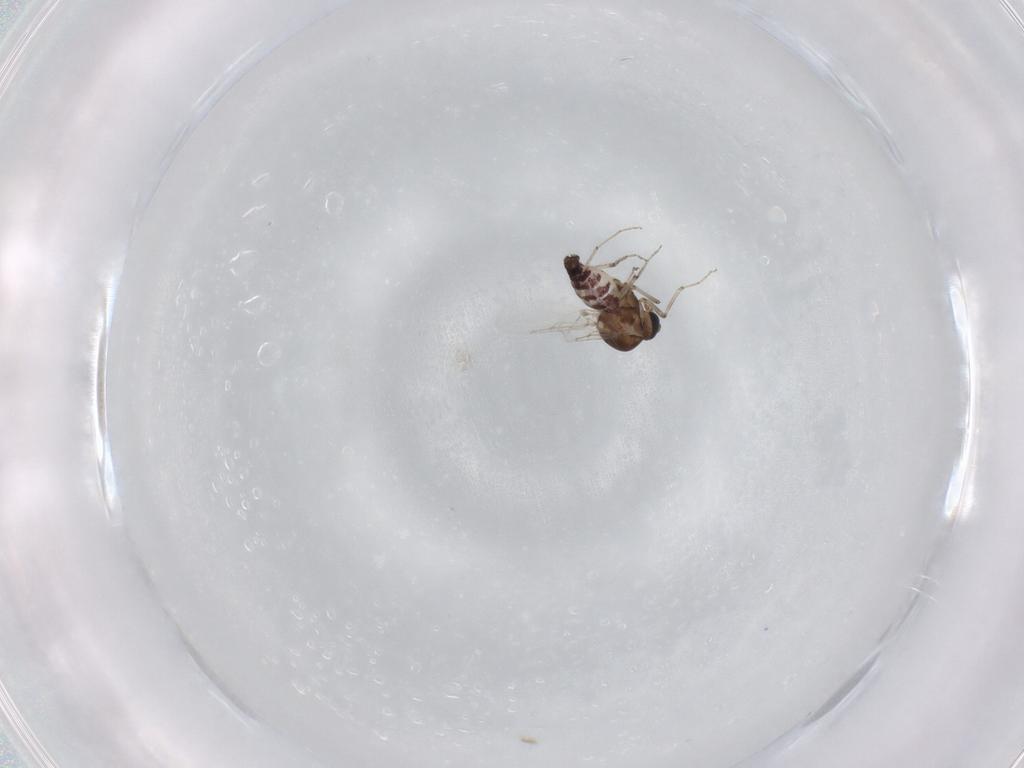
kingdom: Animalia
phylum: Arthropoda
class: Insecta
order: Diptera
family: Ceratopogonidae
